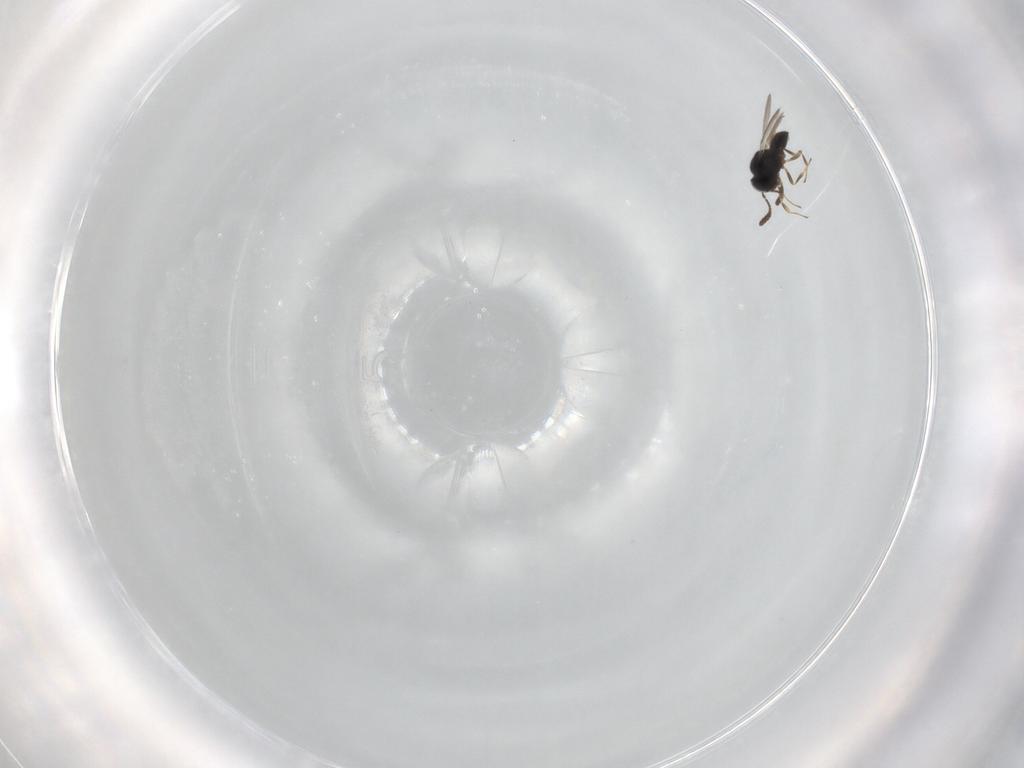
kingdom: Animalia
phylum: Arthropoda
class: Insecta
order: Hymenoptera
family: Scelionidae
